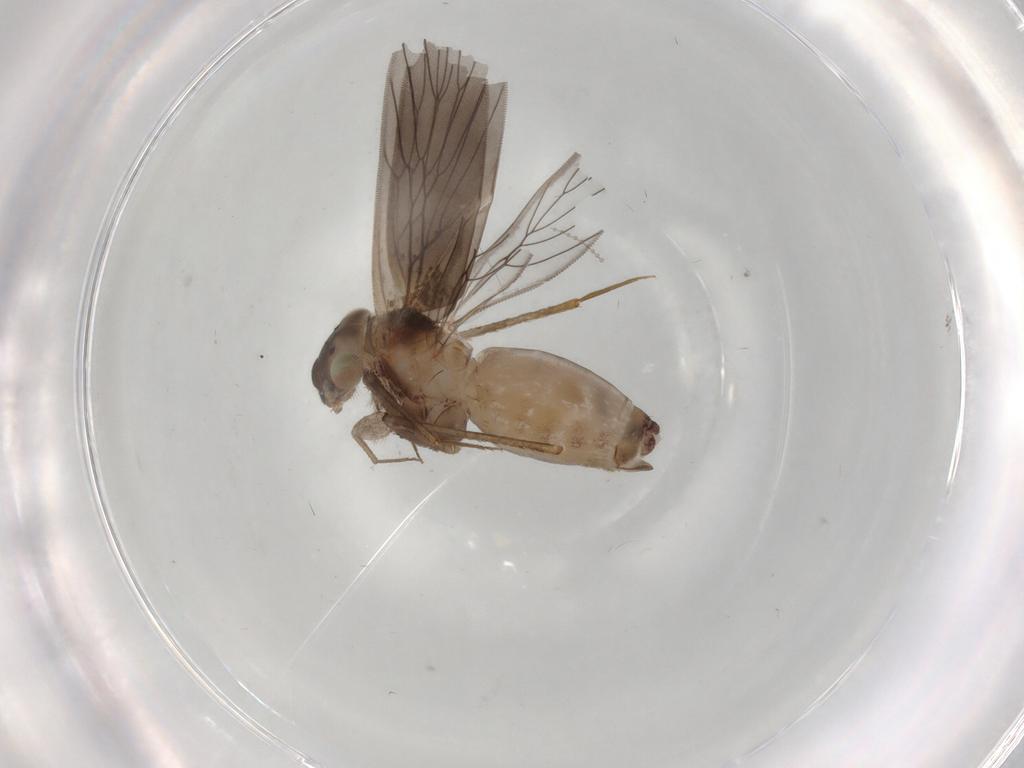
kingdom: Animalia
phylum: Arthropoda
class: Insecta
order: Psocodea
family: Lepidopsocidae
